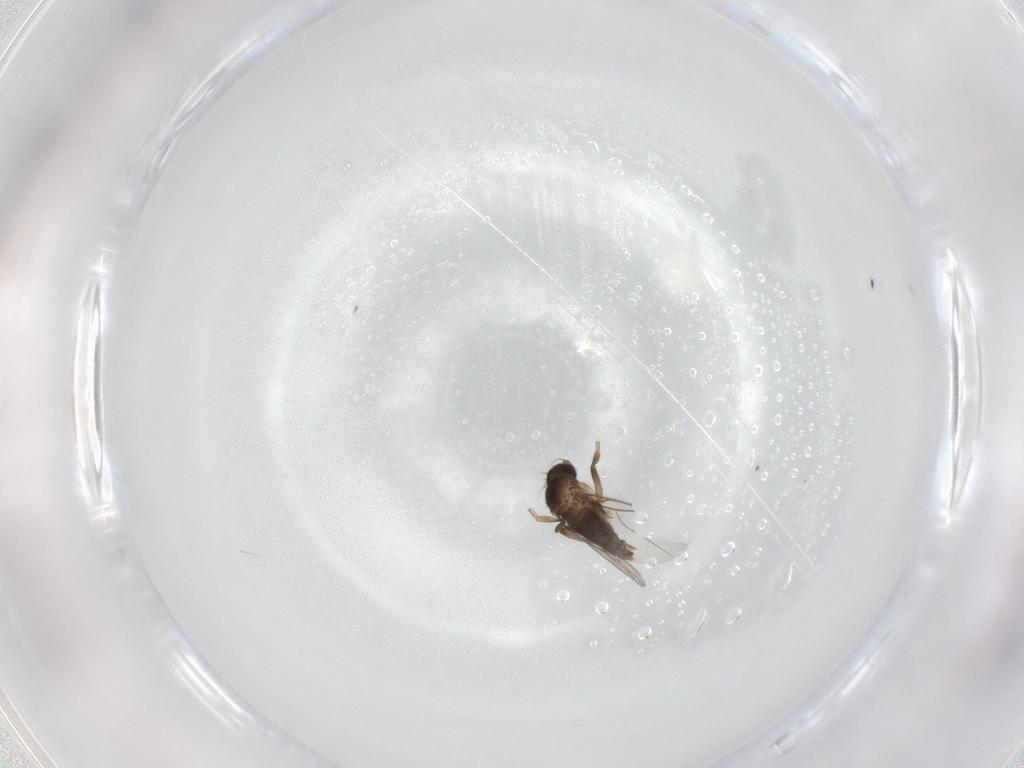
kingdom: Animalia
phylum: Arthropoda
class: Insecta
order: Diptera
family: Phoridae
